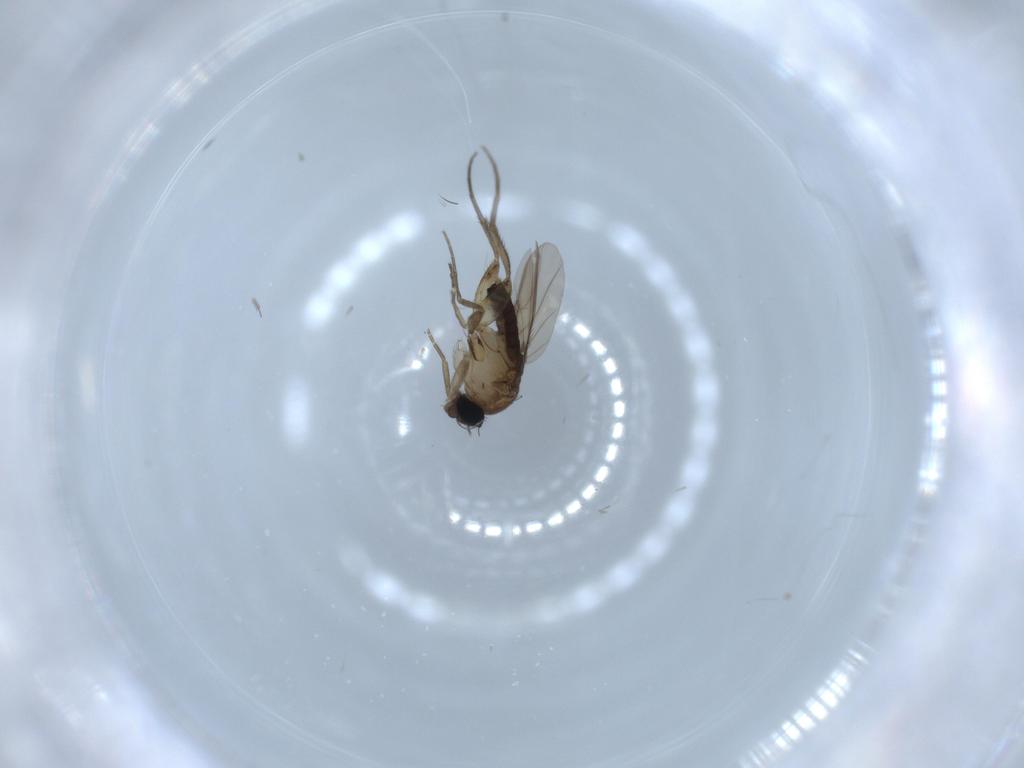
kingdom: Animalia
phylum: Arthropoda
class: Insecta
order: Diptera
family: Phoridae
